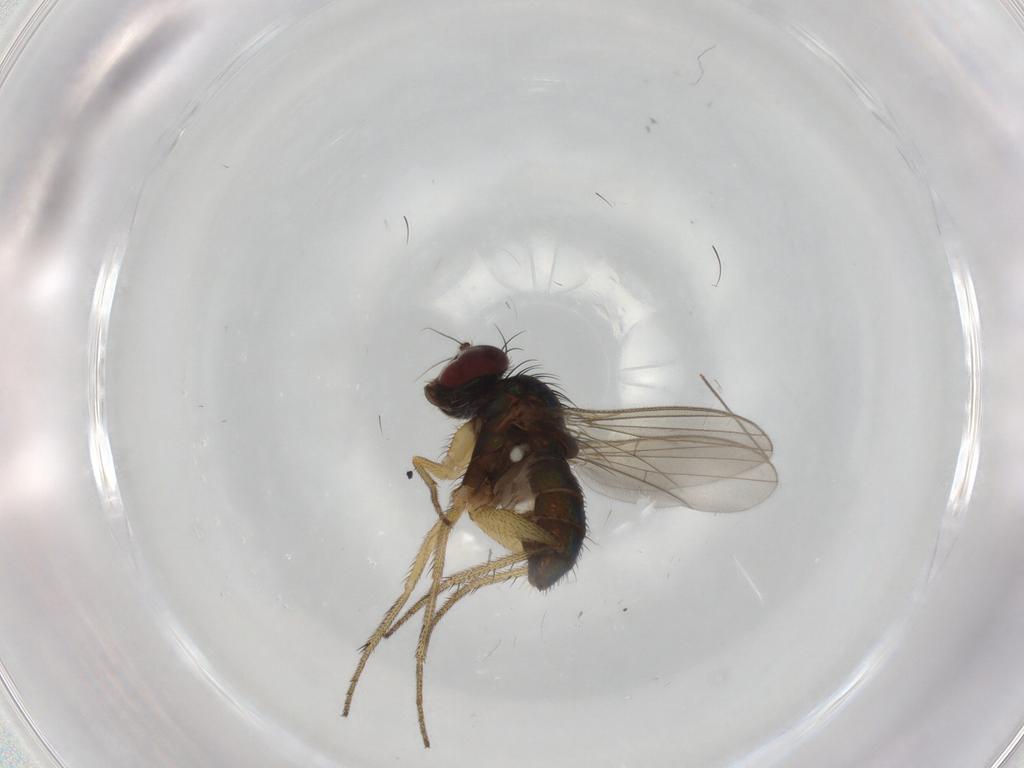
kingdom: Animalia
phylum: Arthropoda
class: Insecta
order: Diptera
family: Dolichopodidae
